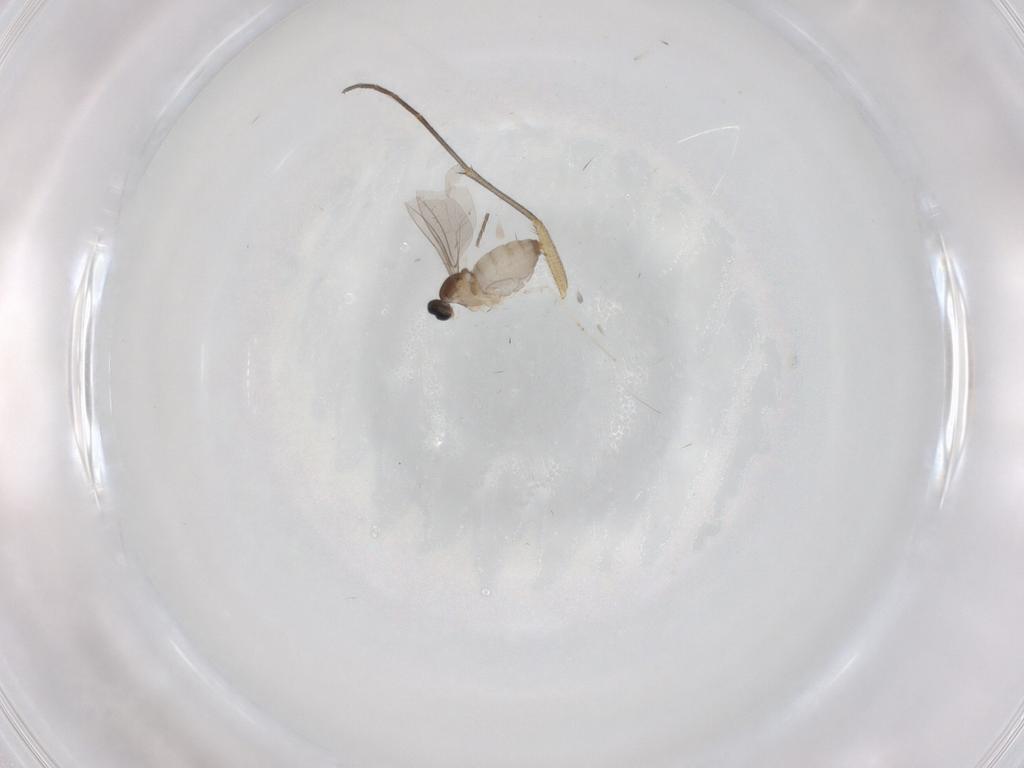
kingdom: Animalia
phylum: Arthropoda
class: Insecta
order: Diptera
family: Cecidomyiidae
